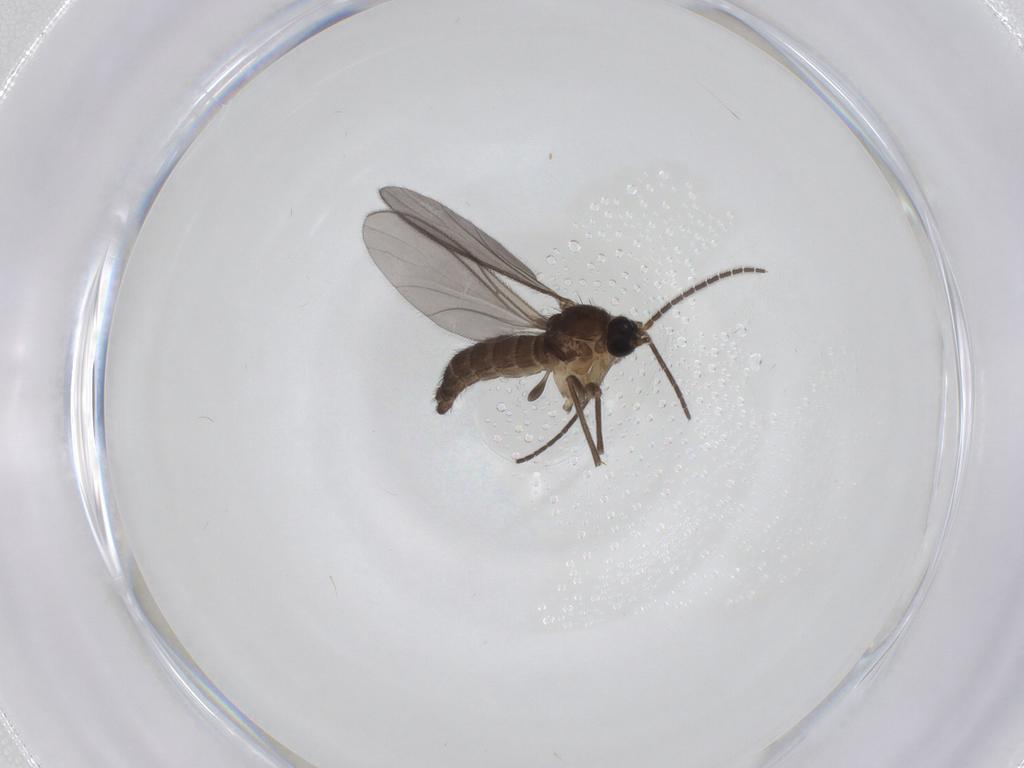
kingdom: Animalia
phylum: Arthropoda
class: Insecta
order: Diptera
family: Sciaridae
